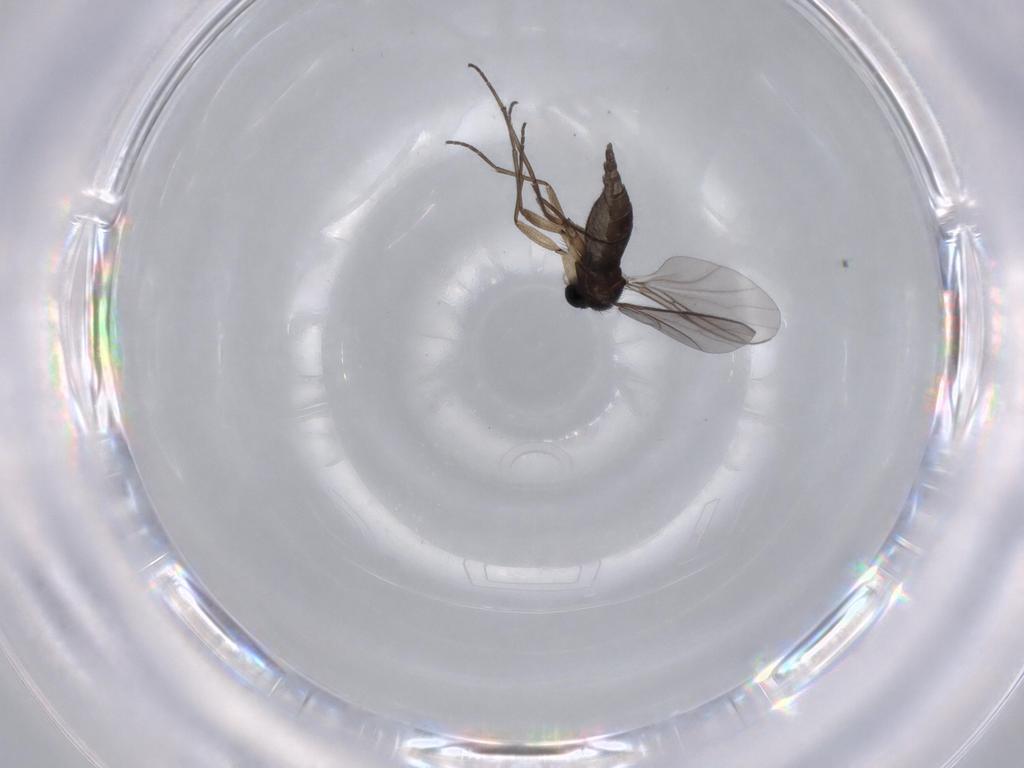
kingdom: Animalia
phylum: Arthropoda
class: Insecta
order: Diptera
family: Sciaridae
